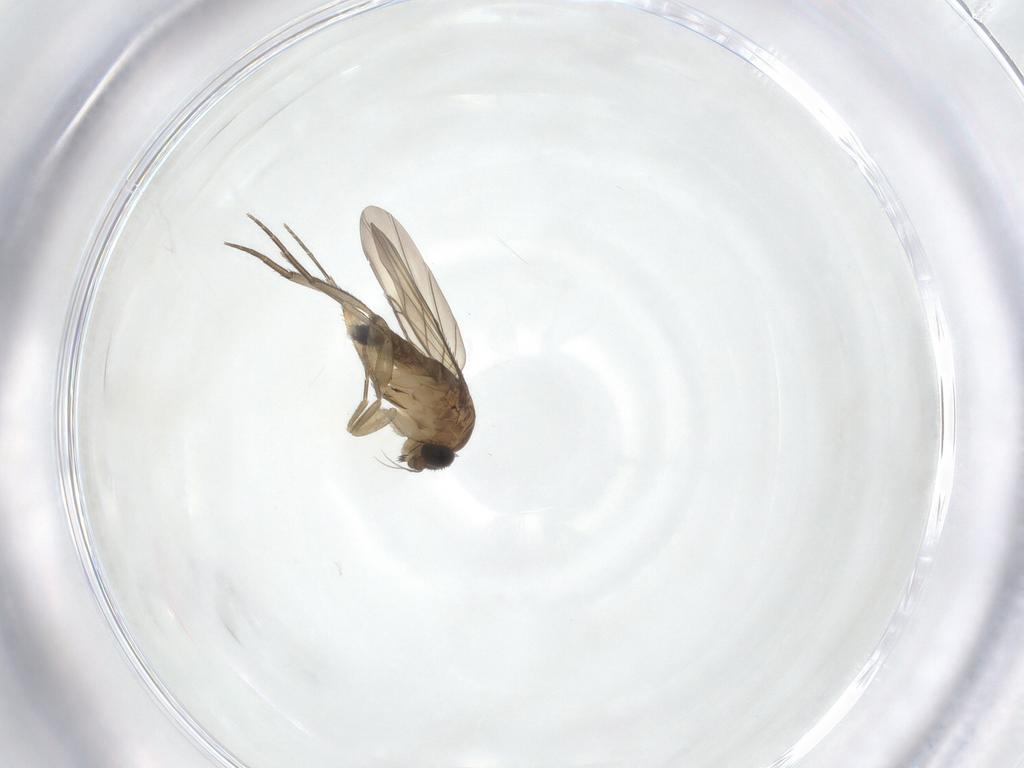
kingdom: Animalia
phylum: Arthropoda
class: Insecta
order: Diptera
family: Phoridae
